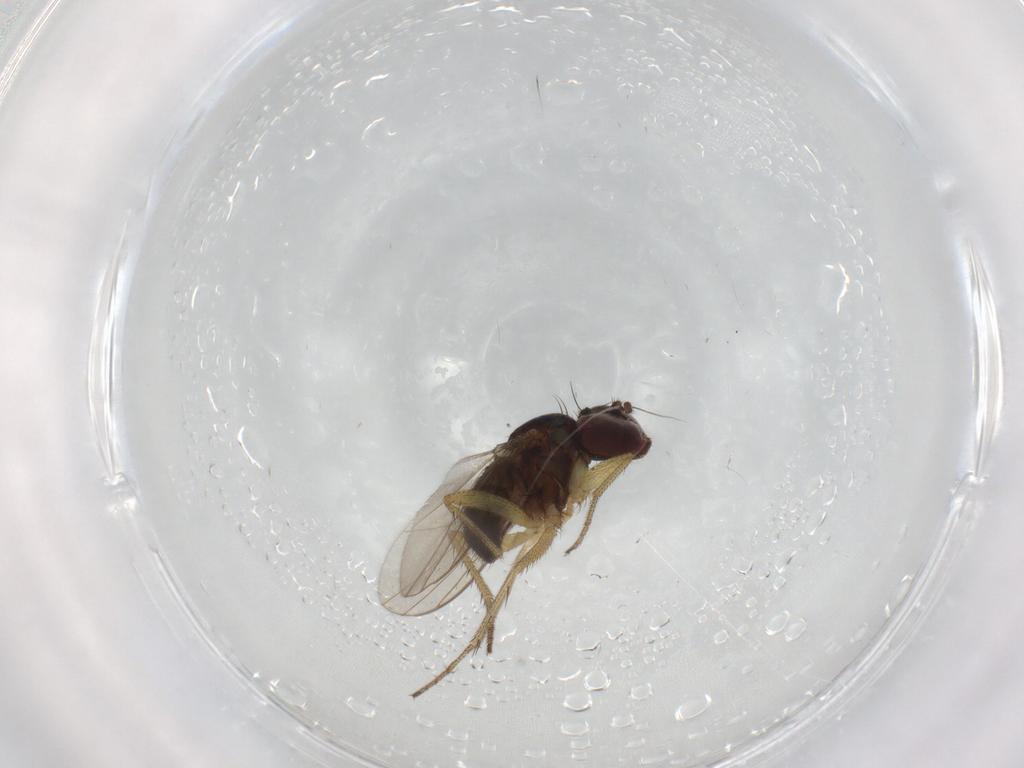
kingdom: Animalia
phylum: Arthropoda
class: Insecta
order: Diptera
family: Dolichopodidae
